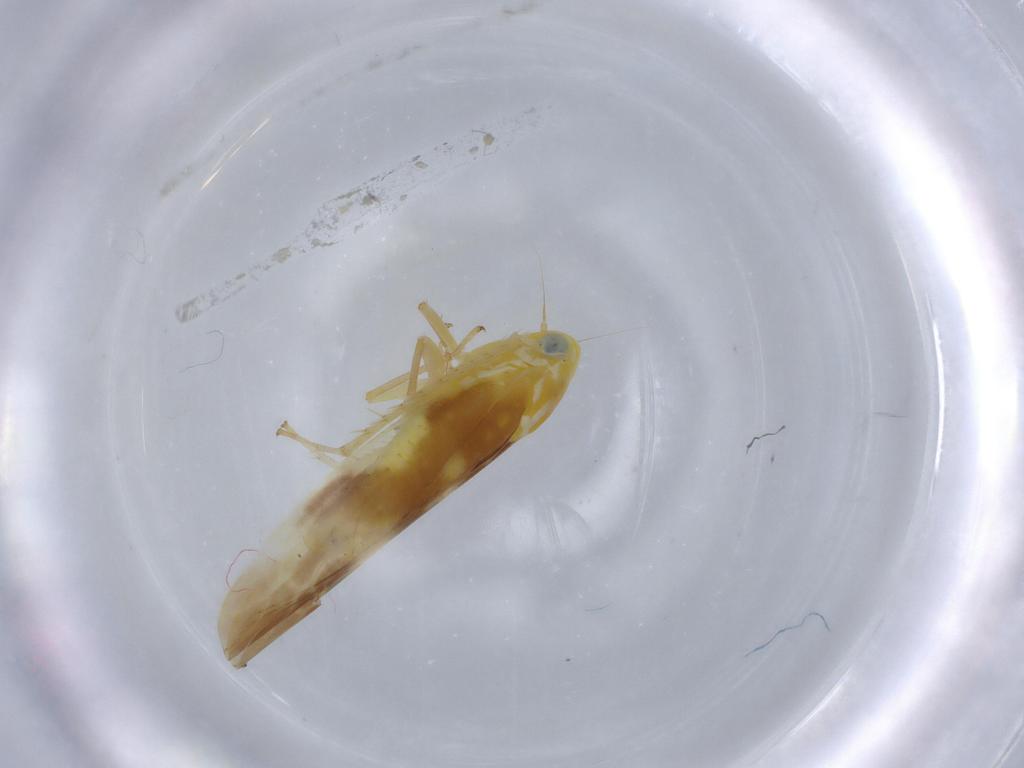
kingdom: Animalia
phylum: Arthropoda
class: Insecta
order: Hemiptera
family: Cicadellidae
